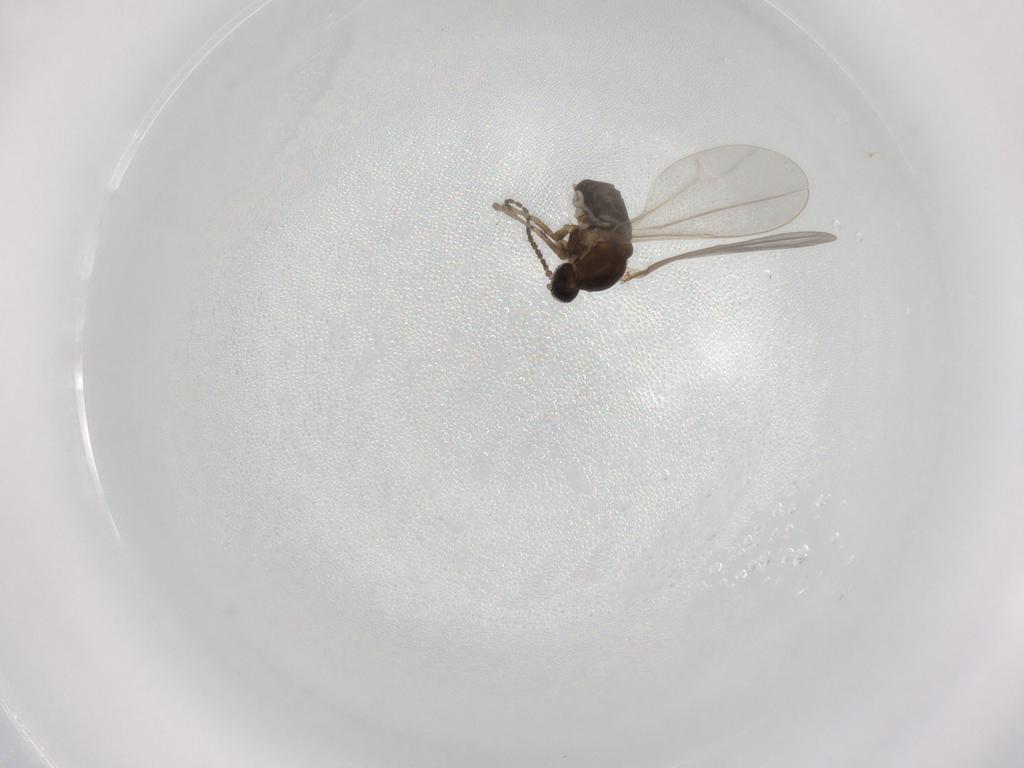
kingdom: Animalia
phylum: Arthropoda
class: Insecta
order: Diptera
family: Cecidomyiidae
